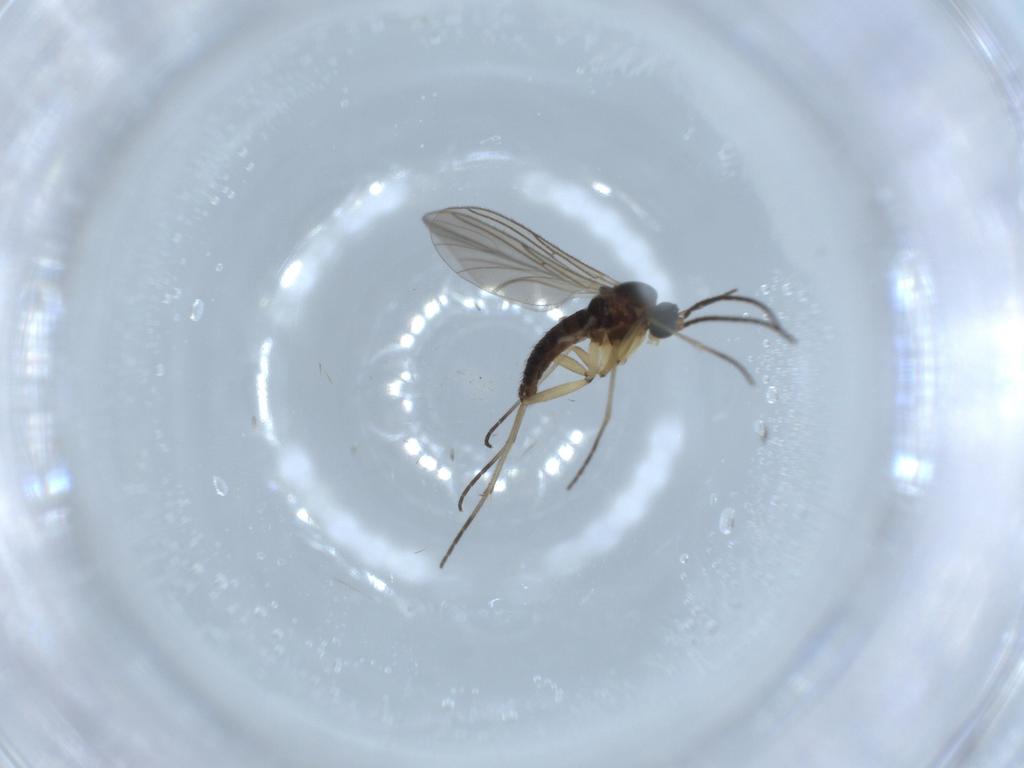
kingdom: Animalia
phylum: Arthropoda
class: Insecta
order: Diptera
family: Sciaridae
